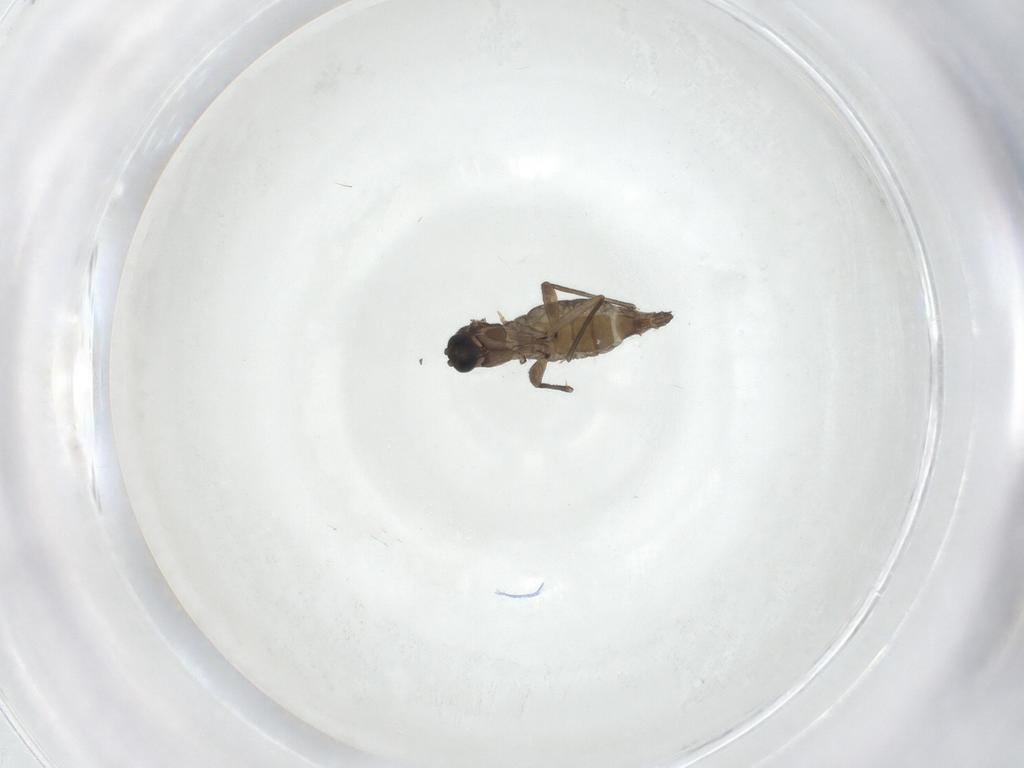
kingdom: Animalia
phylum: Arthropoda
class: Insecta
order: Diptera
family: Sciaridae
